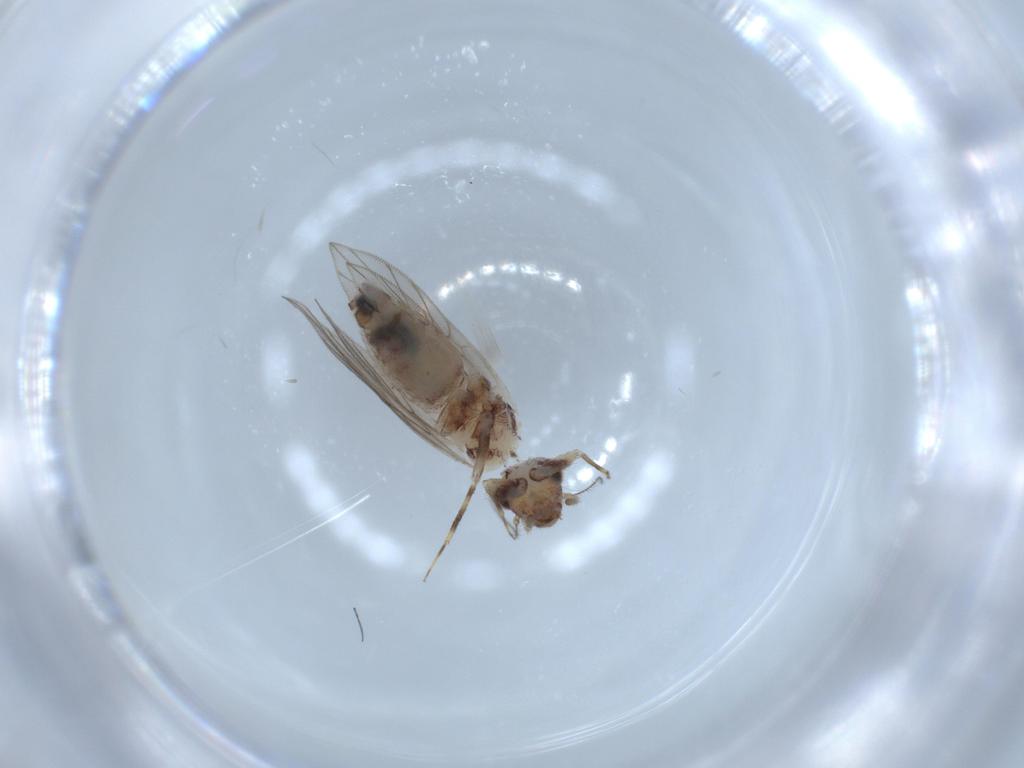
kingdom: Animalia
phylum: Arthropoda
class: Insecta
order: Psocodea
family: Lepidopsocidae
